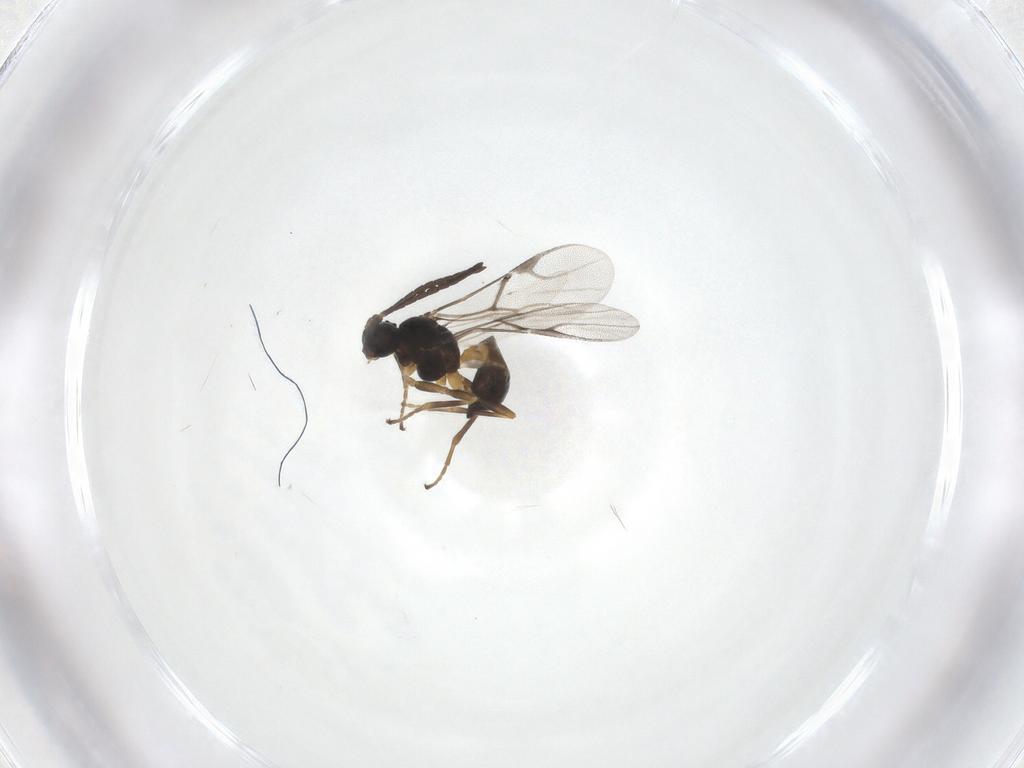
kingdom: Animalia
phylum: Arthropoda
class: Insecta
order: Hymenoptera
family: Braconidae
